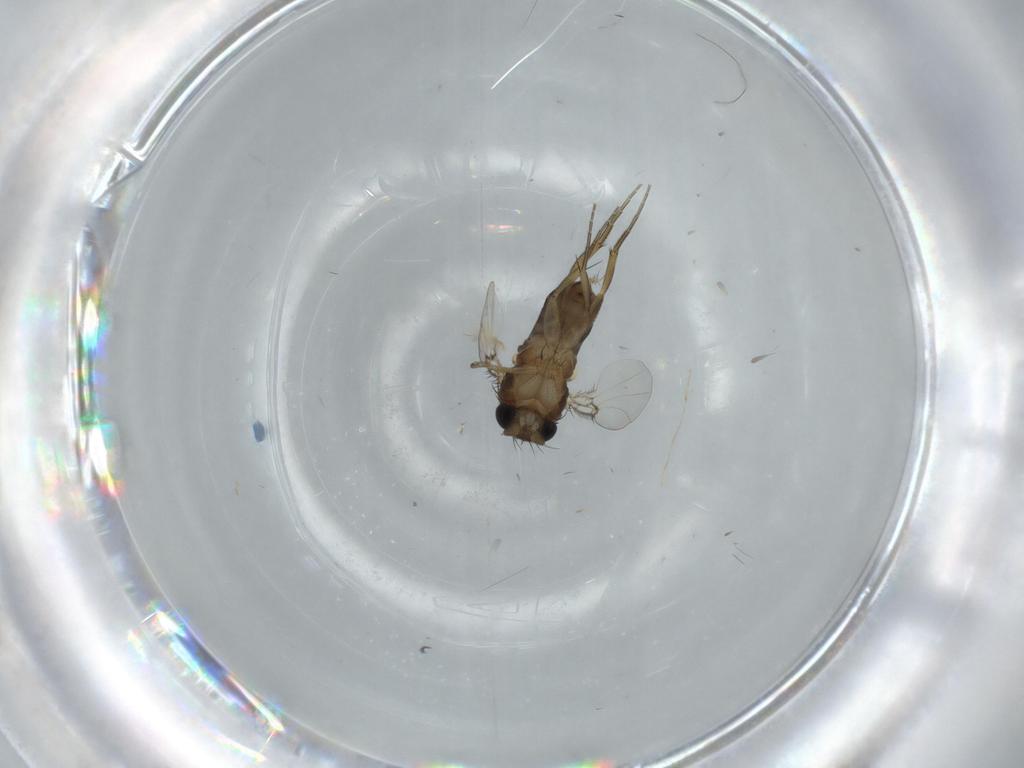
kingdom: Animalia
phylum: Arthropoda
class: Insecta
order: Diptera
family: Phoridae
